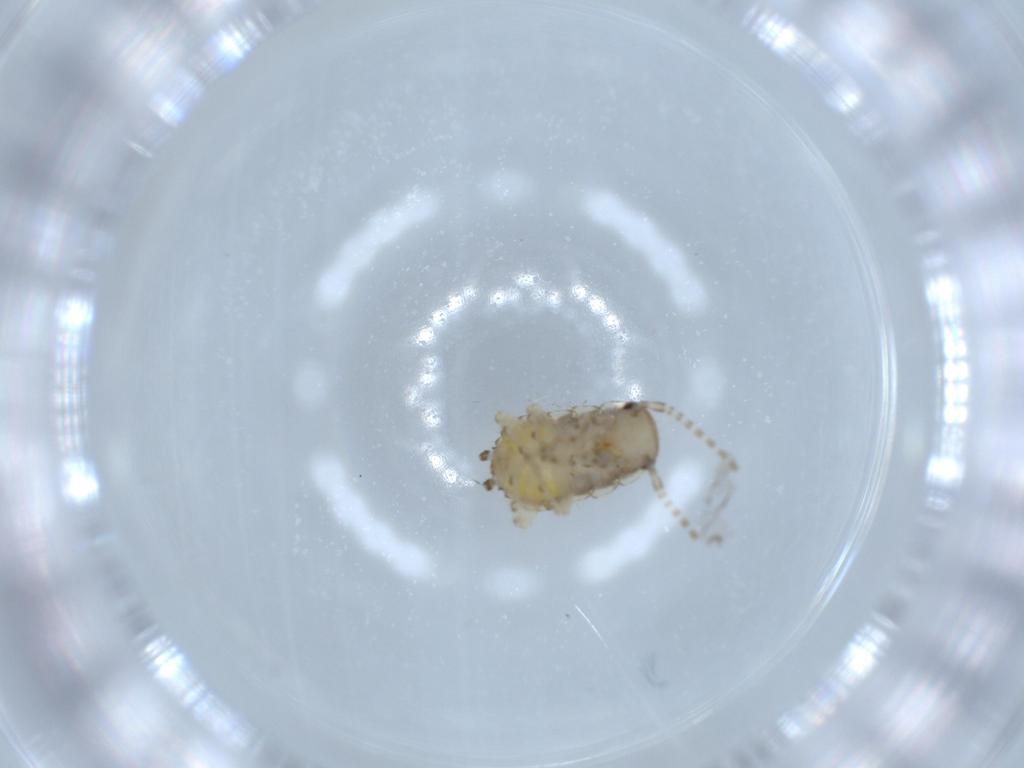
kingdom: Animalia
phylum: Arthropoda
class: Insecta
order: Blattodea
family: Ectobiidae
